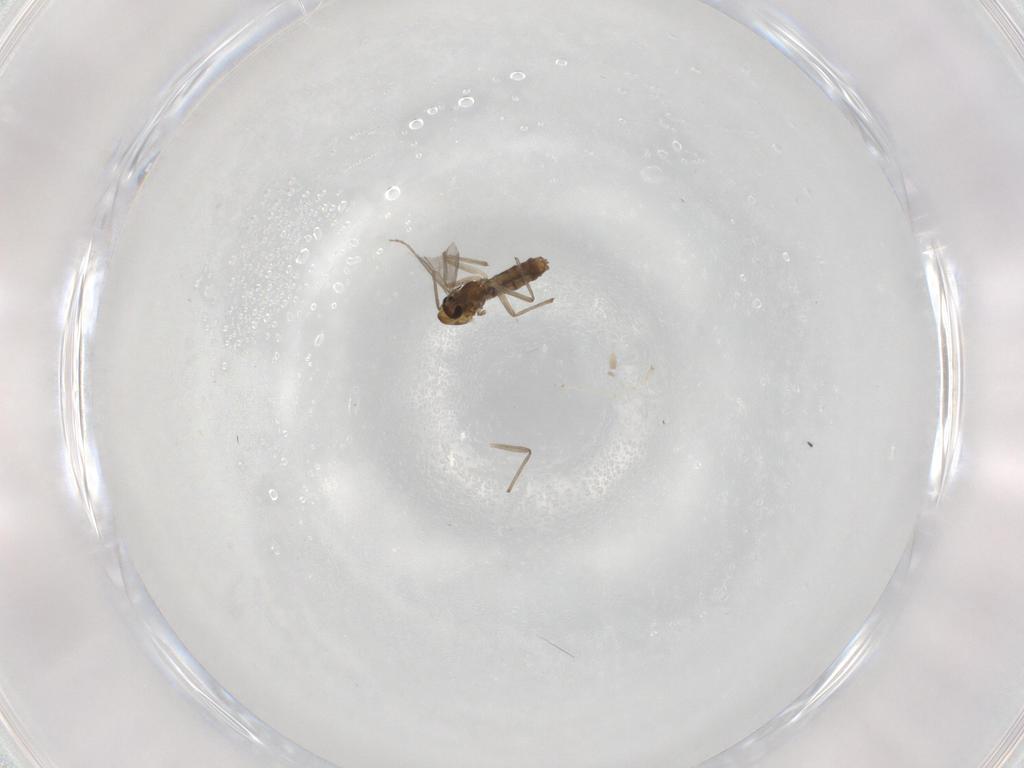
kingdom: Animalia
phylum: Arthropoda
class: Insecta
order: Diptera
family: Chironomidae
